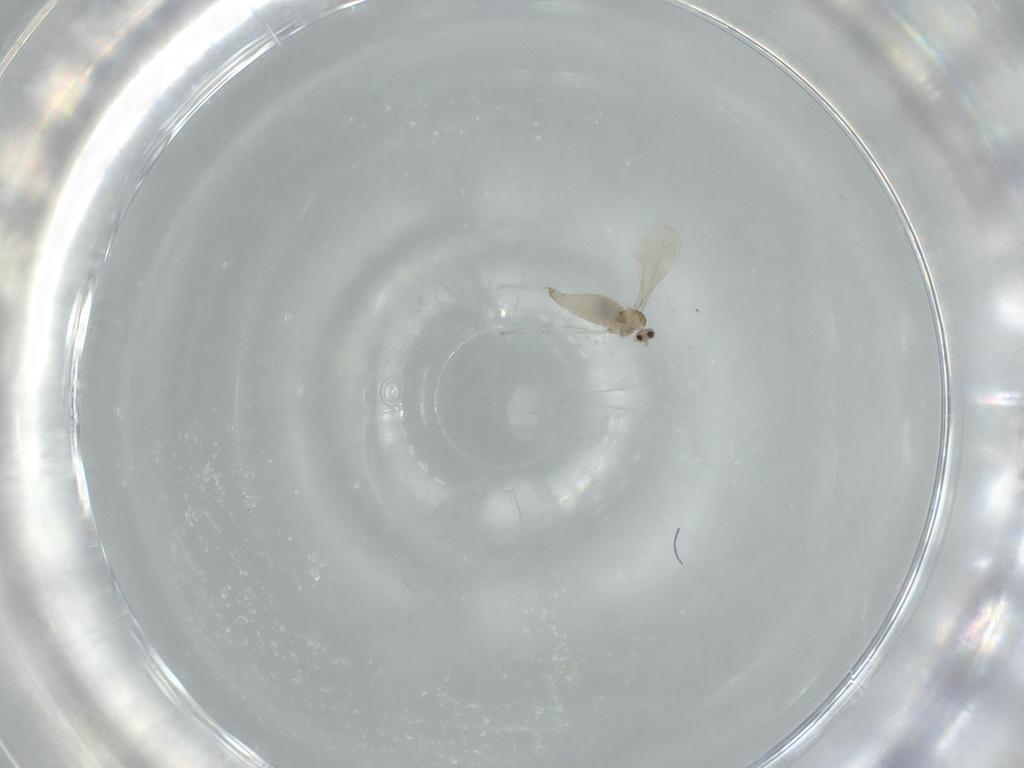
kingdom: Animalia
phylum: Arthropoda
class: Insecta
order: Diptera
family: Cecidomyiidae
